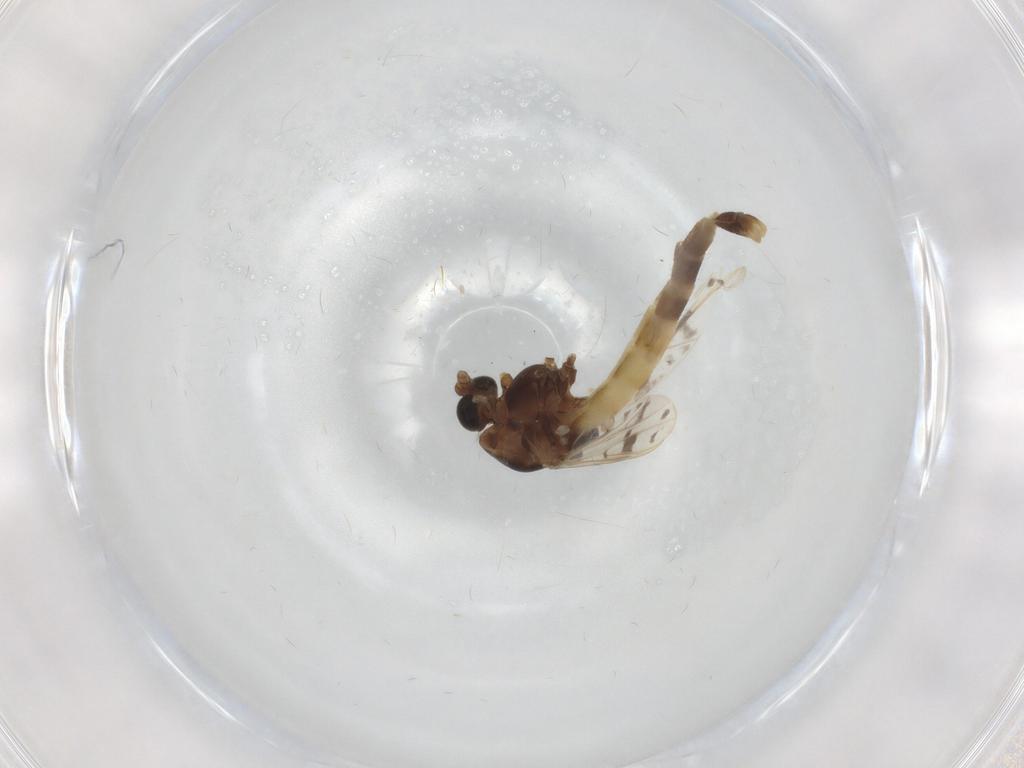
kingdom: Animalia
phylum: Arthropoda
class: Insecta
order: Diptera
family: Chironomidae
